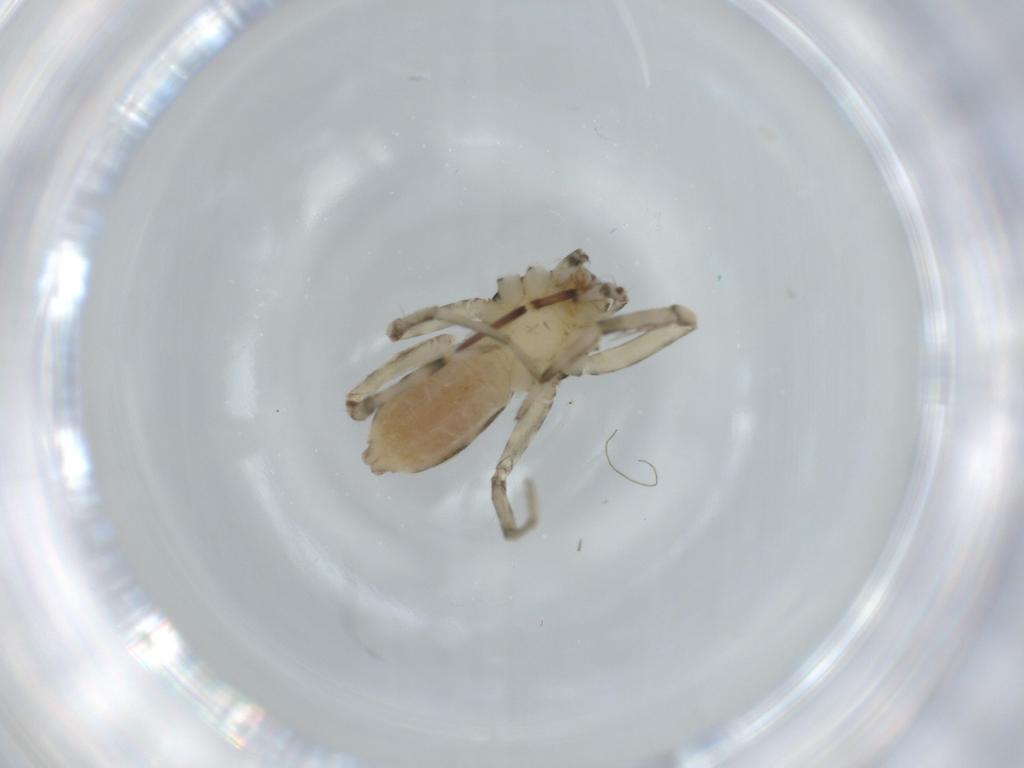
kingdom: Animalia
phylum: Arthropoda
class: Arachnida
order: Araneae
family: Senoculidae
